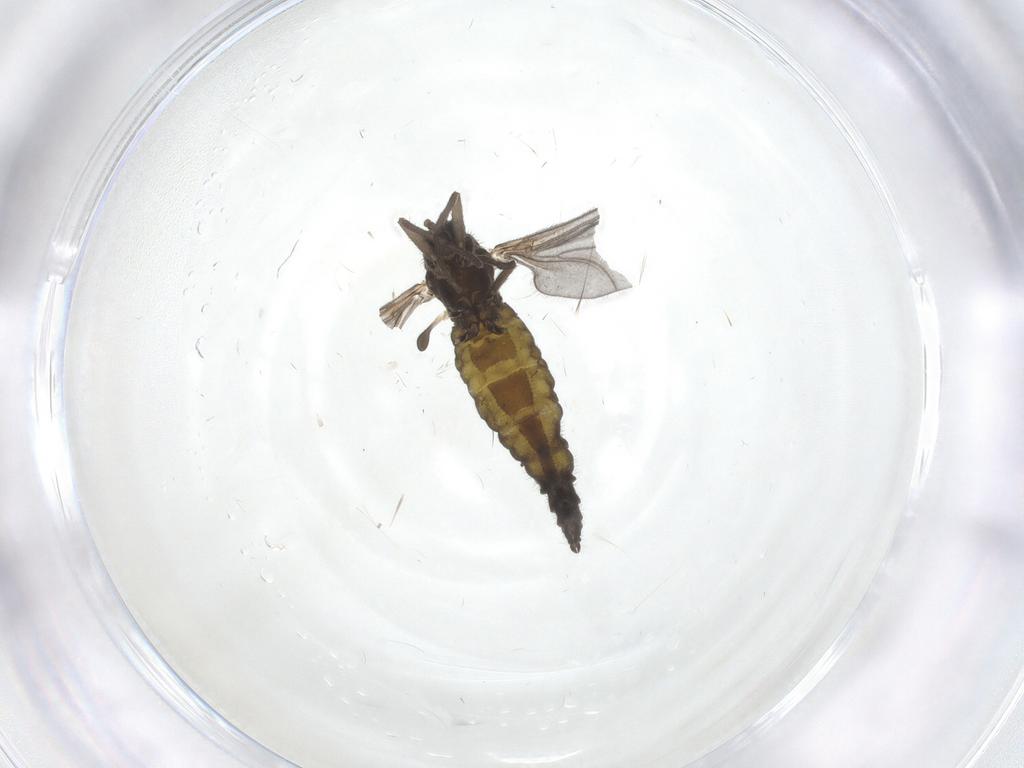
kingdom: Animalia
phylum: Arthropoda
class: Insecta
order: Diptera
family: Sciaridae
